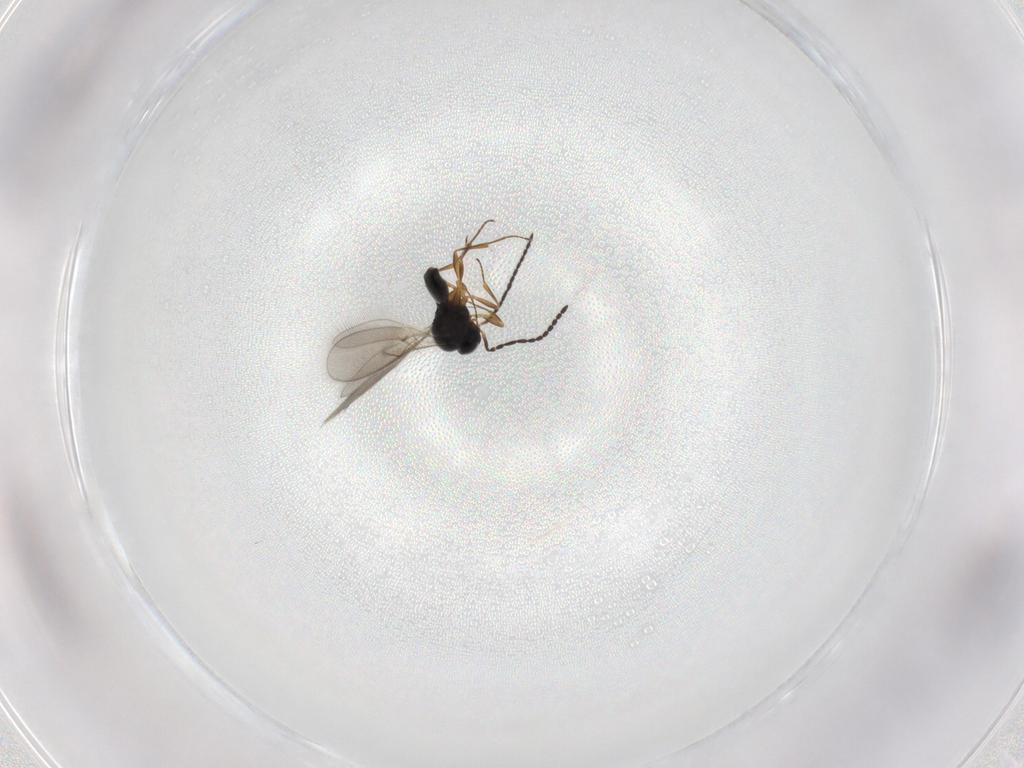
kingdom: Animalia
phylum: Arthropoda
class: Insecta
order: Hymenoptera
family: Scelionidae
